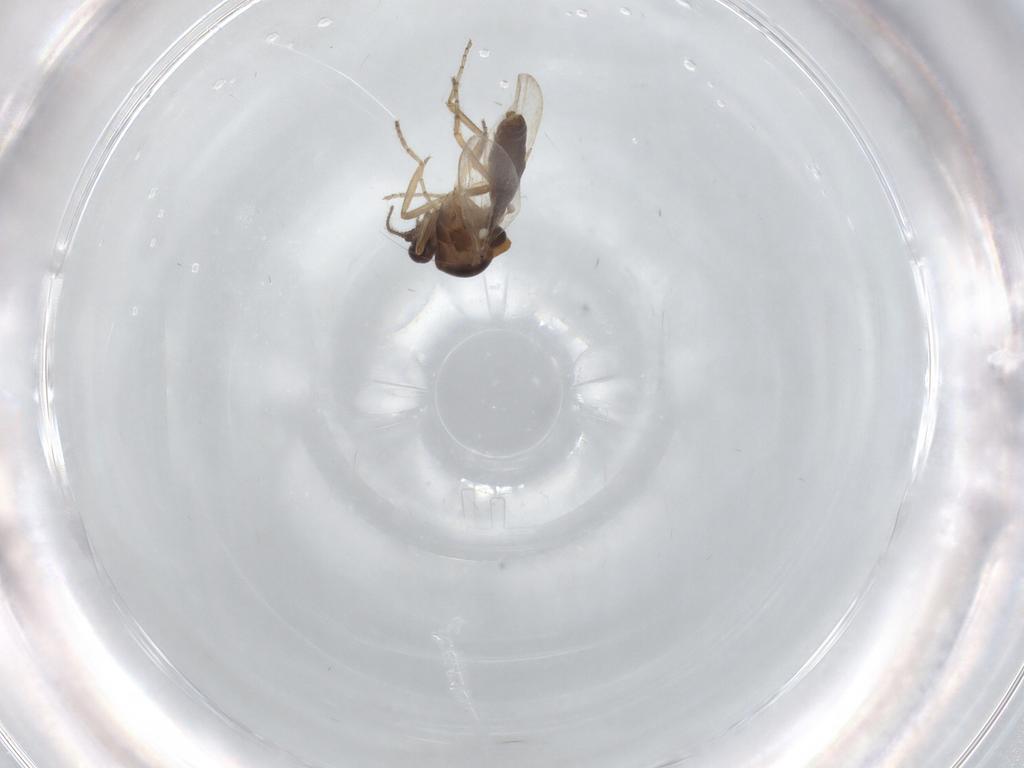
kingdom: Animalia
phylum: Arthropoda
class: Insecta
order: Diptera
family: Ceratopogonidae
